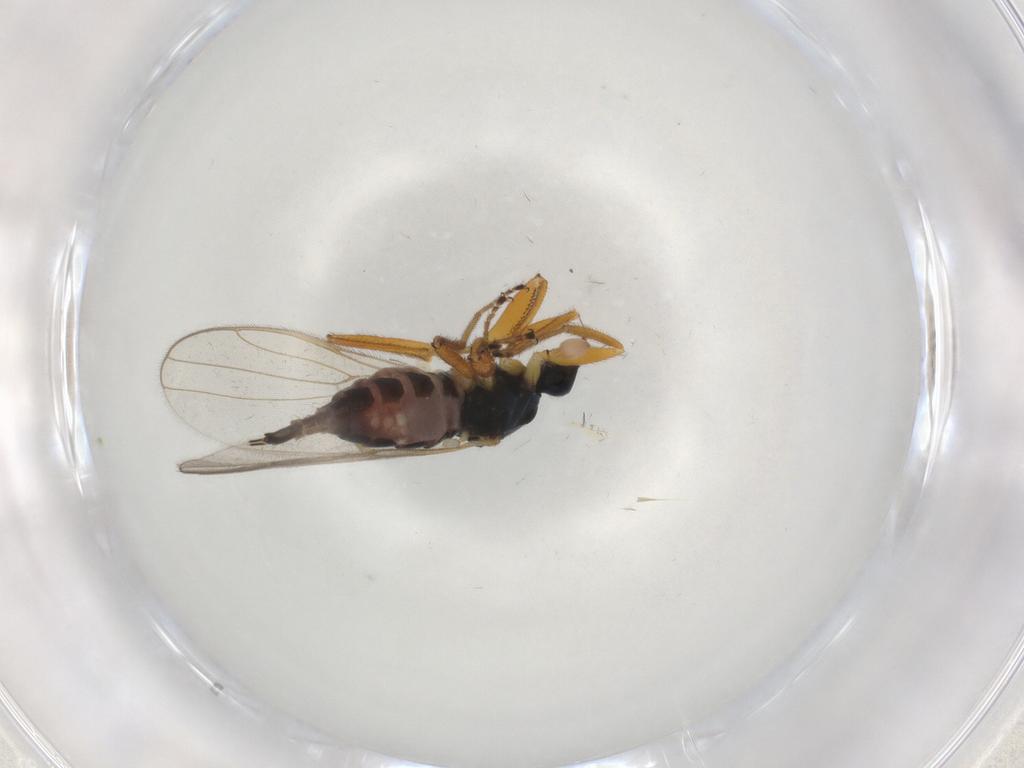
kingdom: Animalia
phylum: Arthropoda
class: Insecta
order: Diptera
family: Hybotidae
